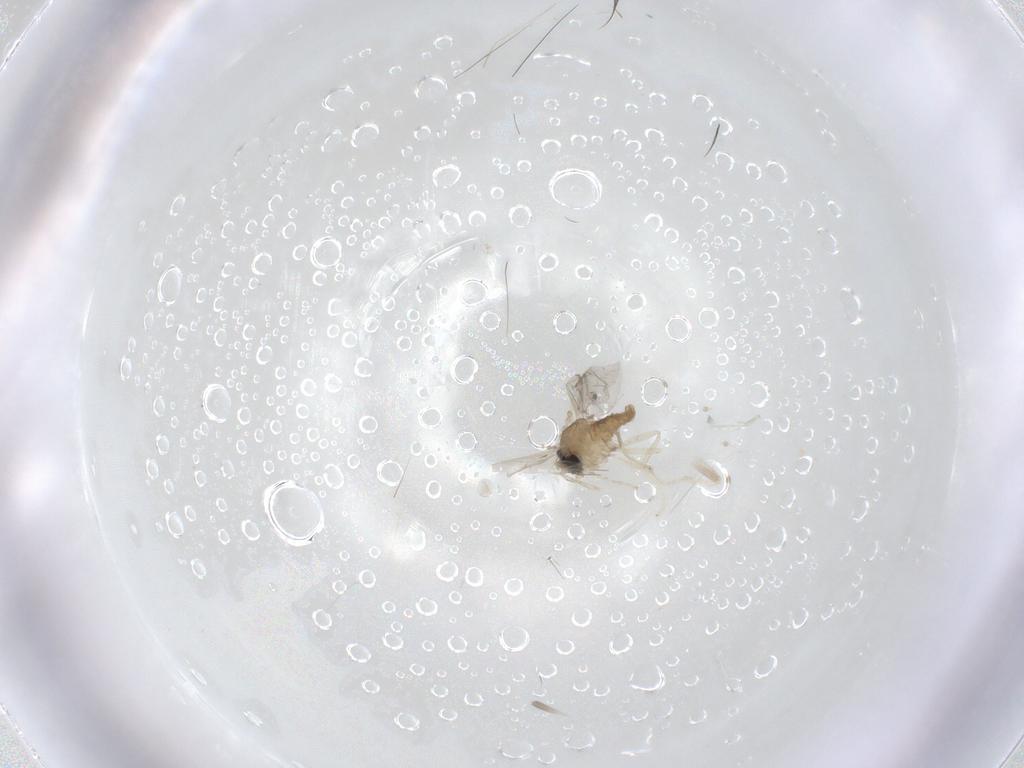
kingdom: Animalia
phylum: Arthropoda
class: Insecta
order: Diptera
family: Cecidomyiidae
